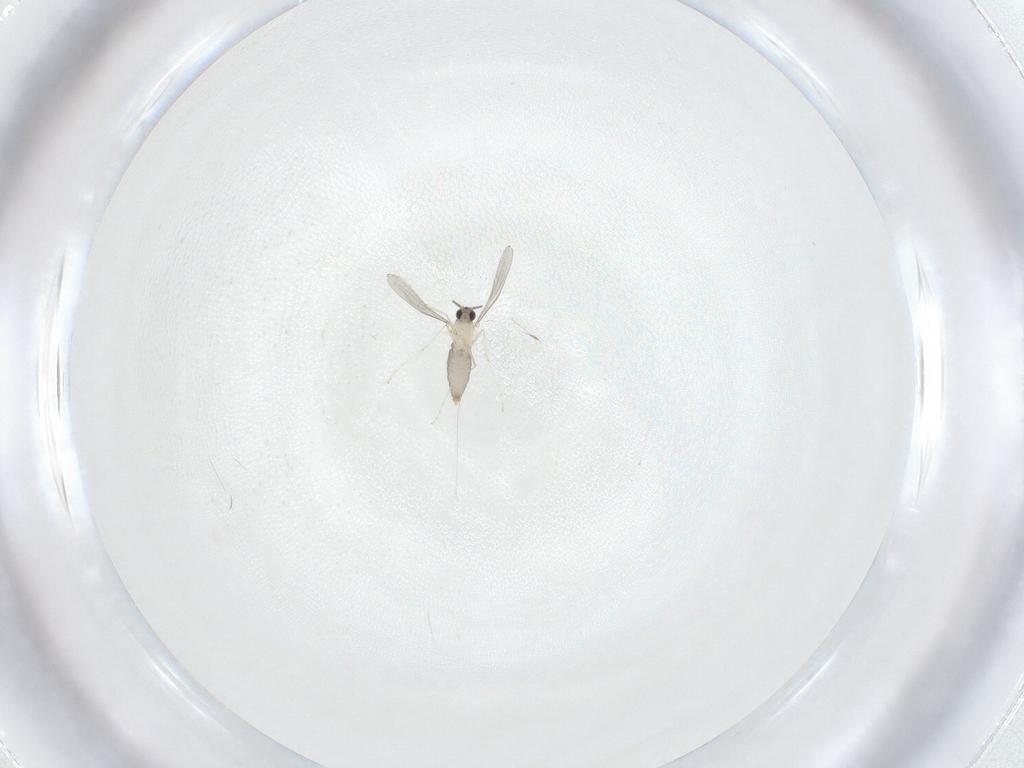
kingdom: Animalia
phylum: Arthropoda
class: Insecta
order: Diptera
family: Cecidomyiidae
